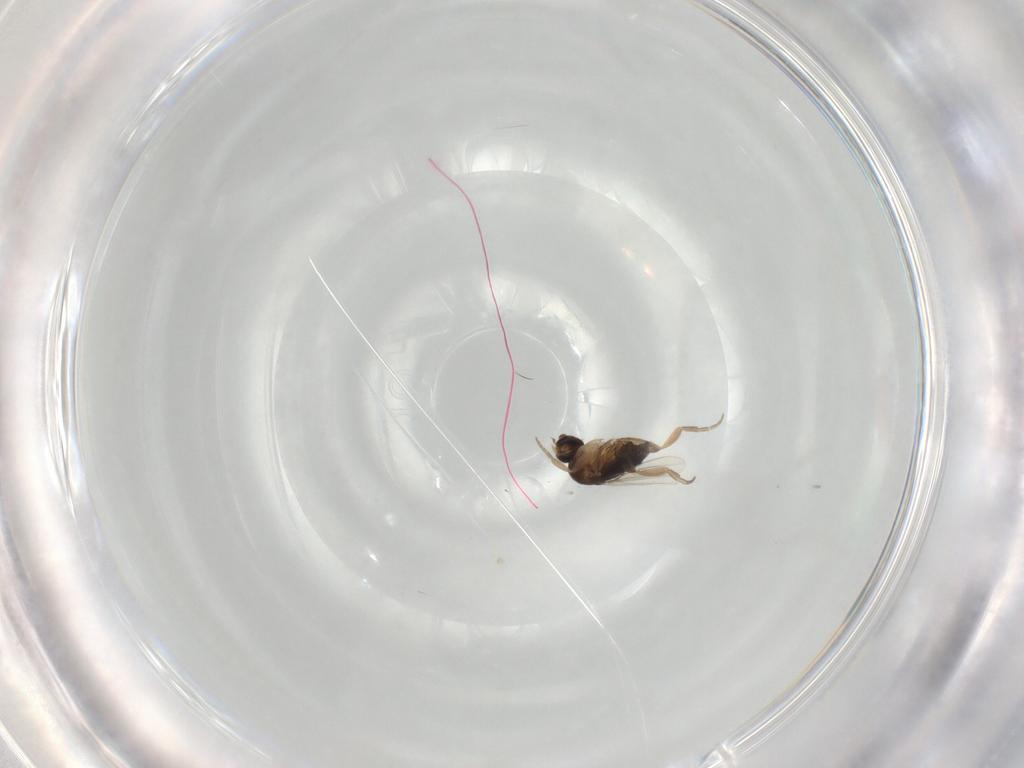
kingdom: Animalia
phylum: Arthropoda
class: Insecta
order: Diptera
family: Phoridae
